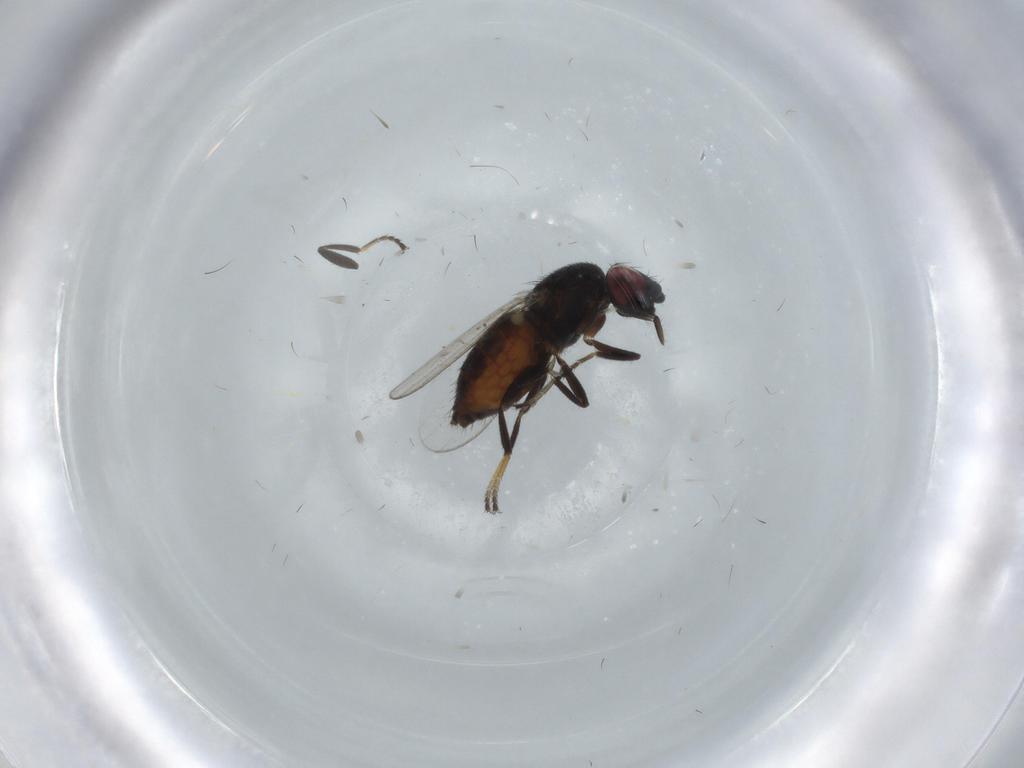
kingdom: Animalia
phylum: Arthropoda
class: Insecta
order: Diptera
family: Milichiidae
